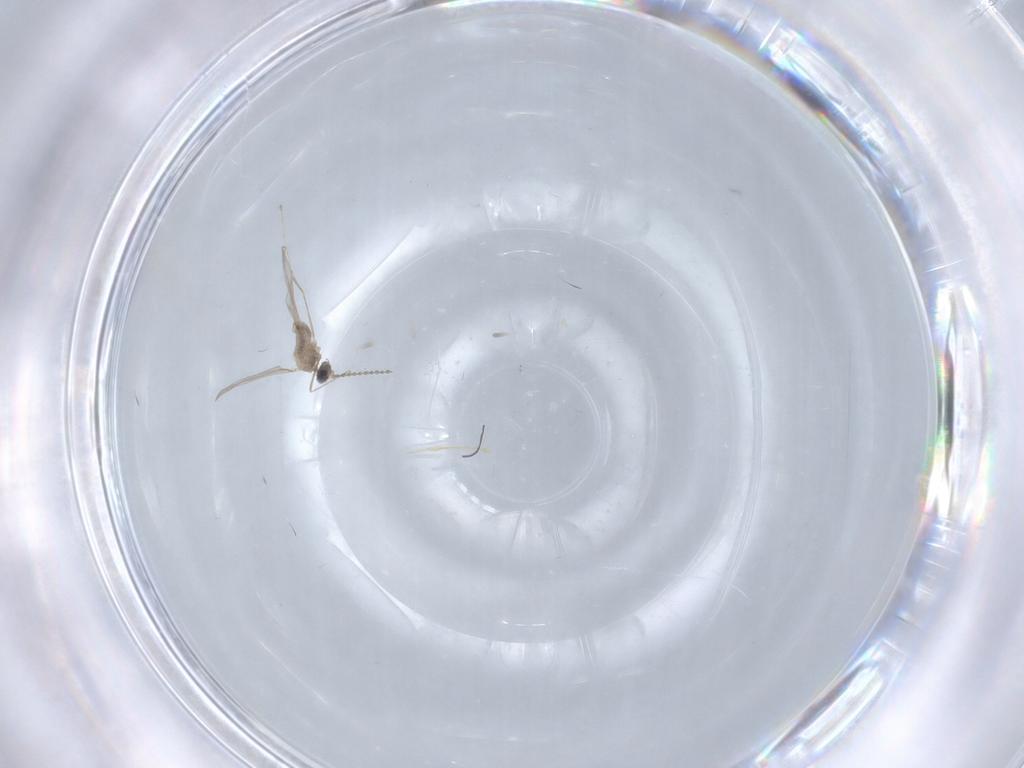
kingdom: Animalia
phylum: Arthropoda
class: Insecta
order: Diptera
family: Cecidomyiidae
